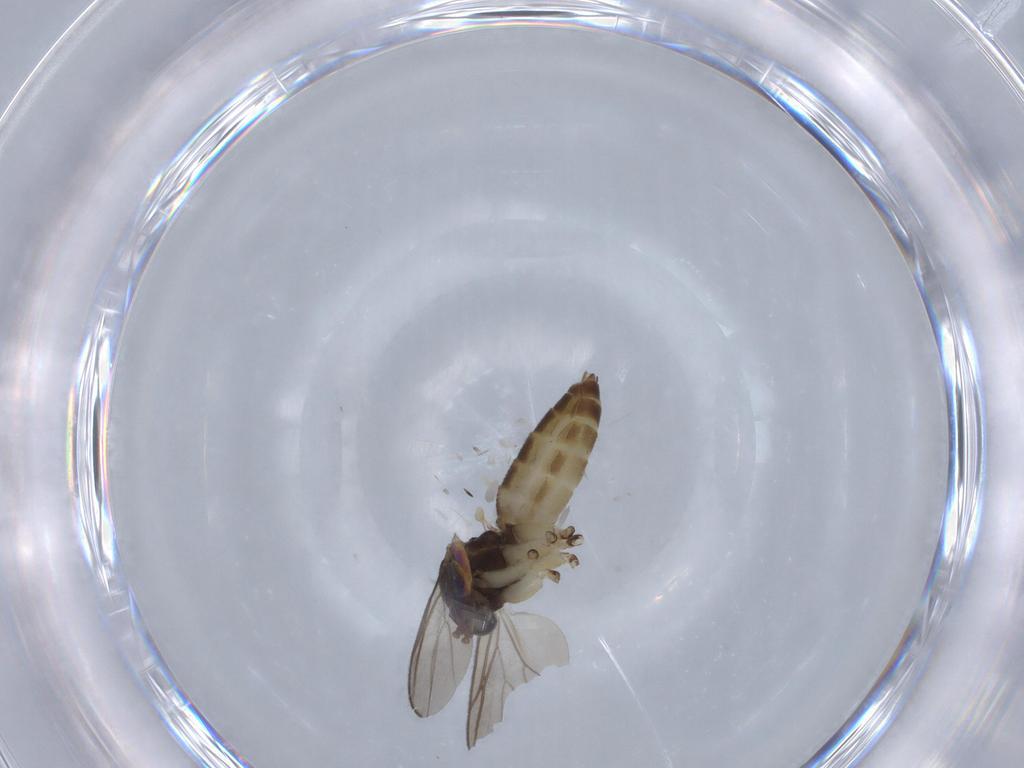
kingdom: Animalia
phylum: Arthropoda
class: Insecta
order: Diptera
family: Mycetophilidae
